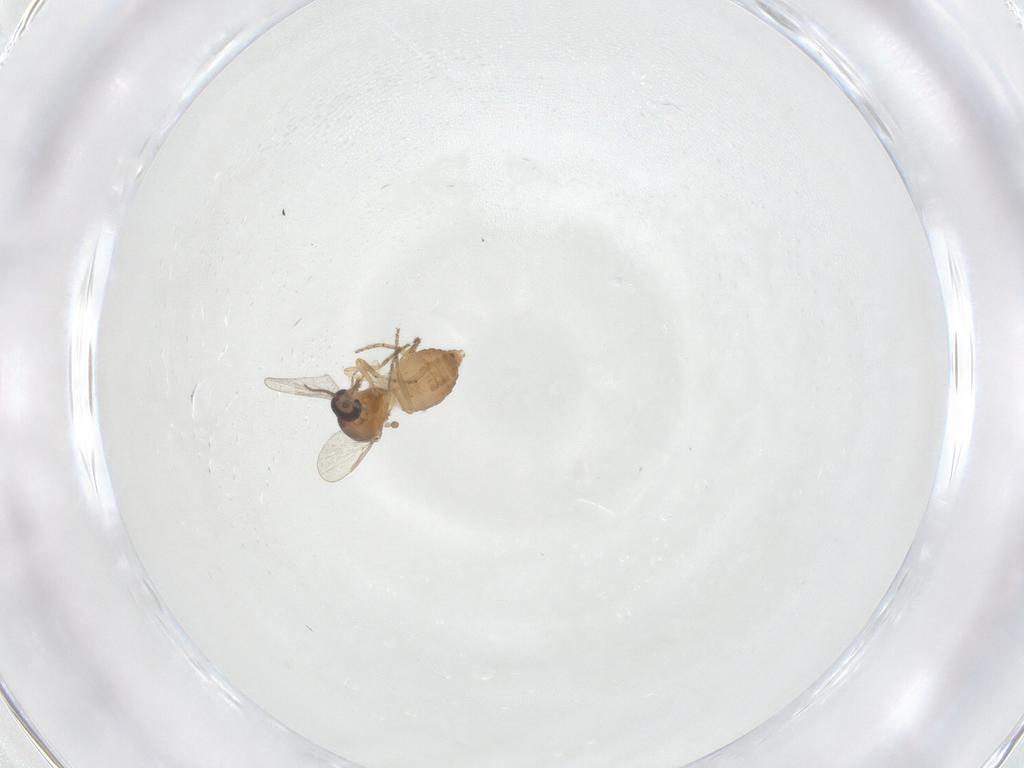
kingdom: Animalia
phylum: Arthropoda
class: Insecta
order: Diptera
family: Ceratopogonidae
